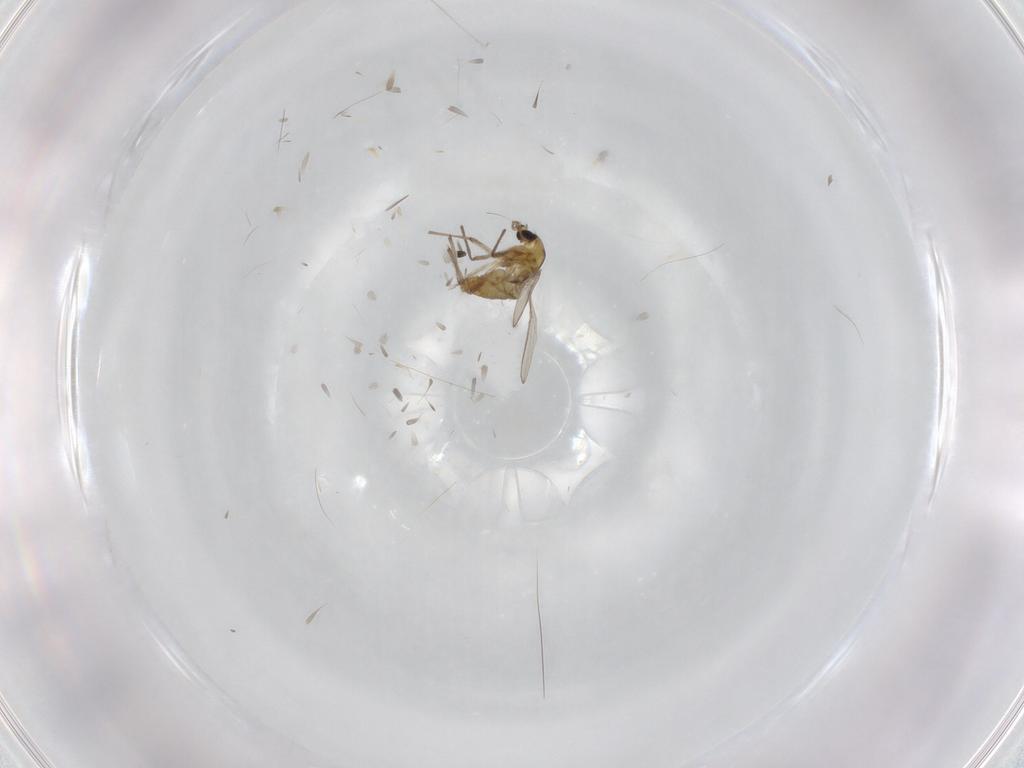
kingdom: Animalia
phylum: Arthropoda
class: Insecta
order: Diptera
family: Chironomidae
